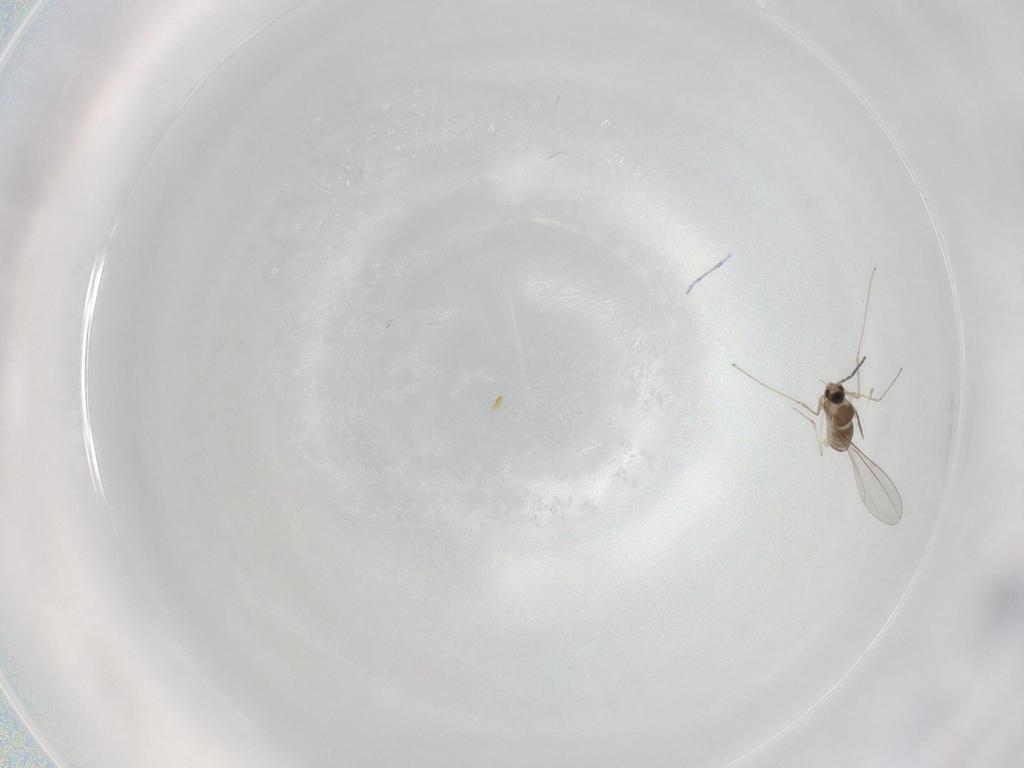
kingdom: Animalia
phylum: Arthropoda
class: Insecta
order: Diptera
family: Cecidomyiidae
